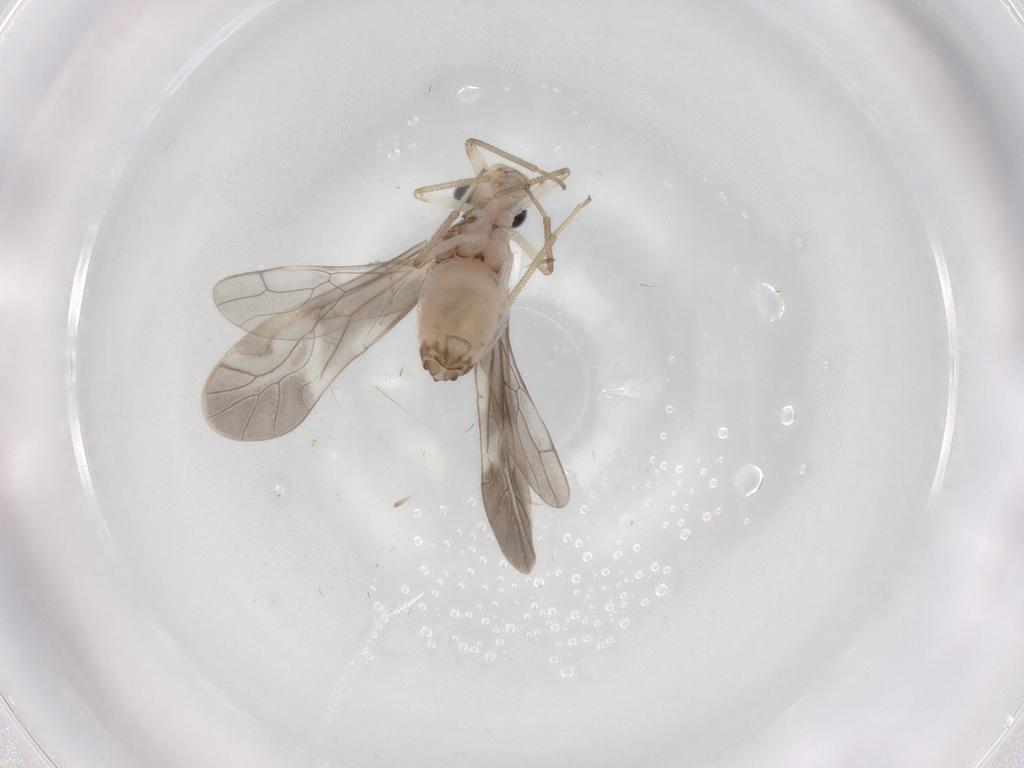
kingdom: Animalia
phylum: Arthropoda
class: Insecta
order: Psocodea
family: Caeciliusidae
